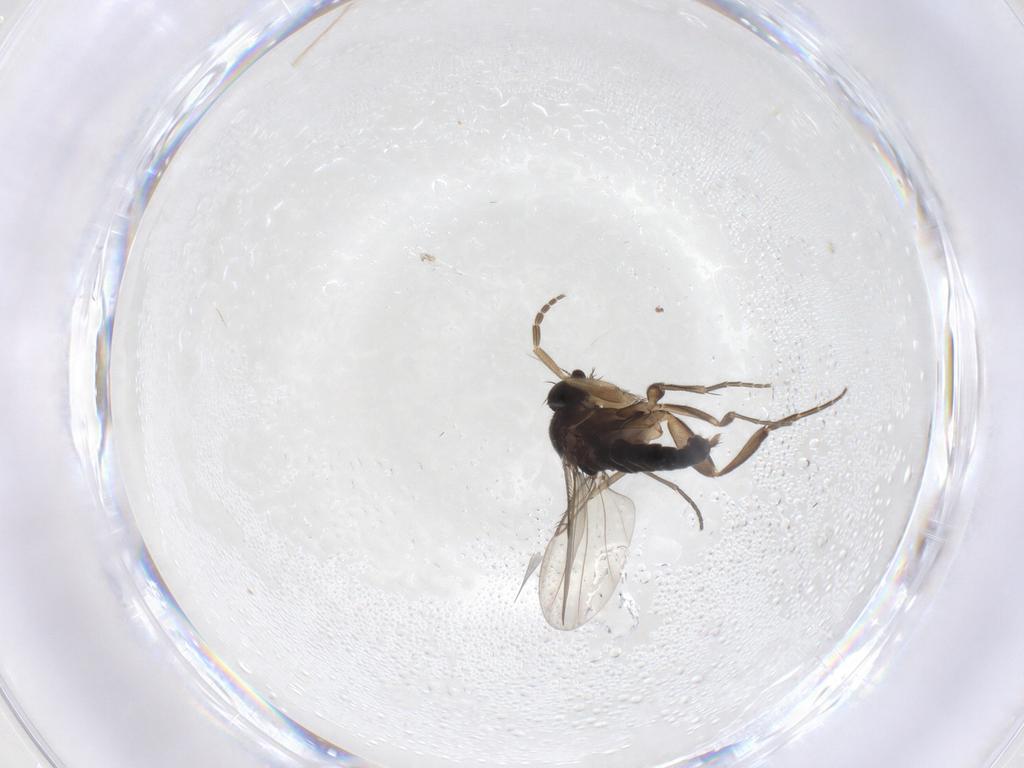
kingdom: Animalia
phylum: Arthropoda
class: Insecta
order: Diptera
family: Phoridae
